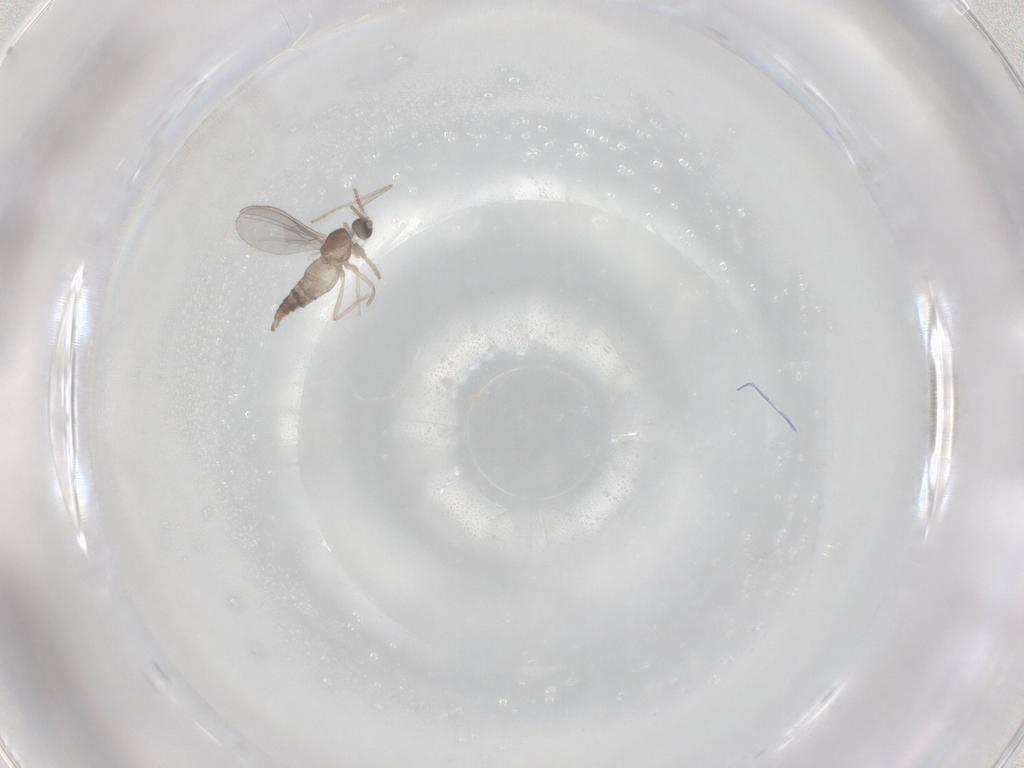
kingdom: Animalia
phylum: Arthropoda
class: Insecta
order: Diptera
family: Cecidomyiidae
